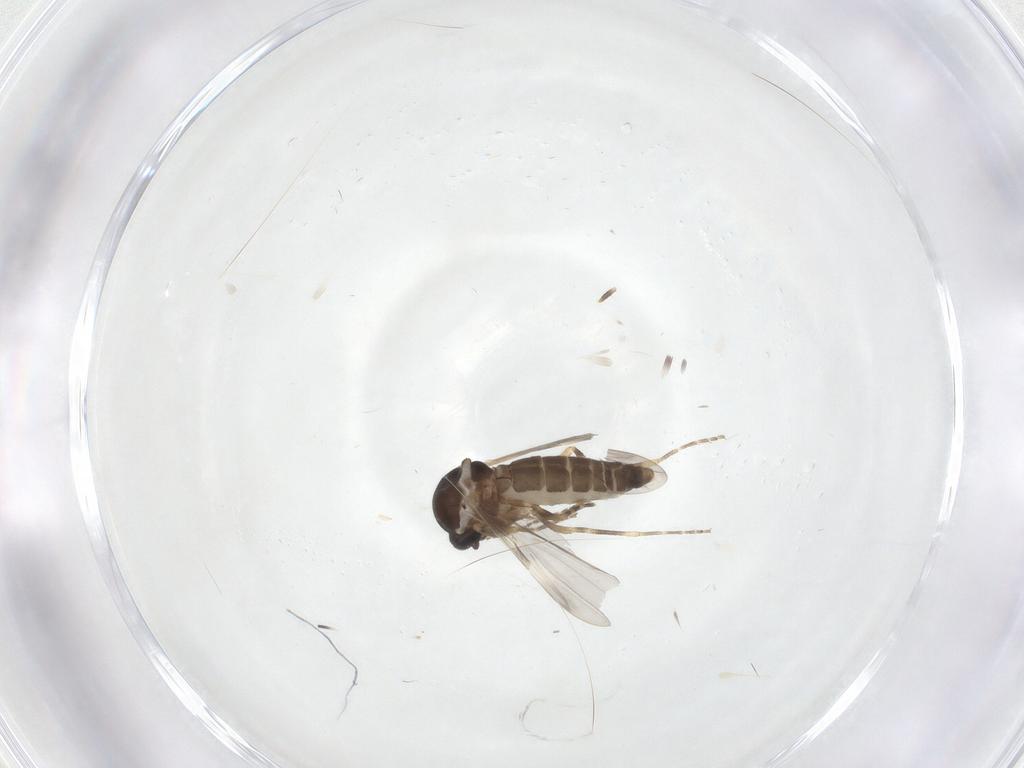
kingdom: Animalia
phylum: Arthropoda
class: Insecta
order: Diptera
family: Ceratopogonidae
